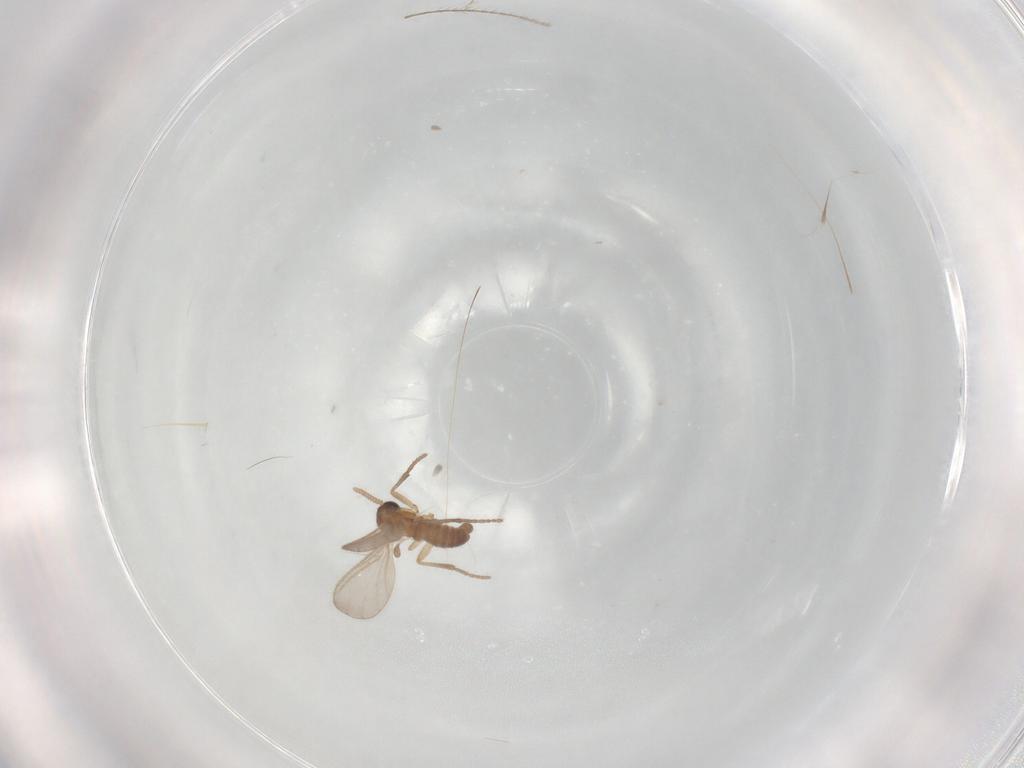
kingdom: Animalia
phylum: Arthropoda
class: Insecta
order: Diptera
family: Sciaridae
